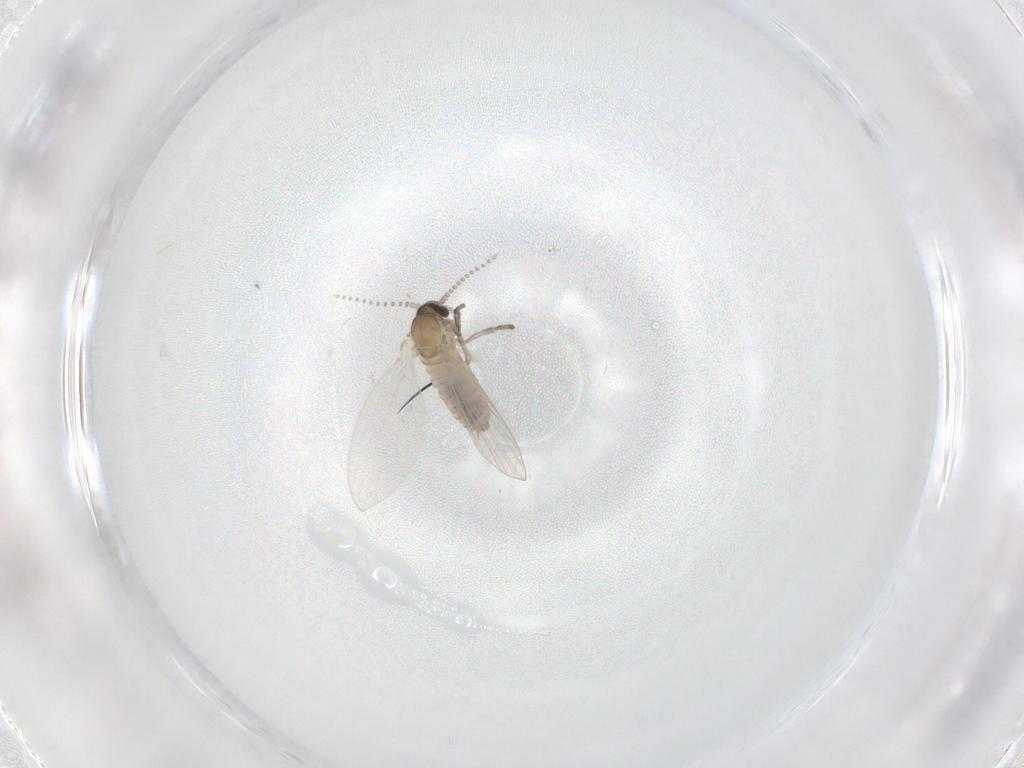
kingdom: Animalia
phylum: Arthropoda
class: Insecta
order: Diptera
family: Psychodidae
